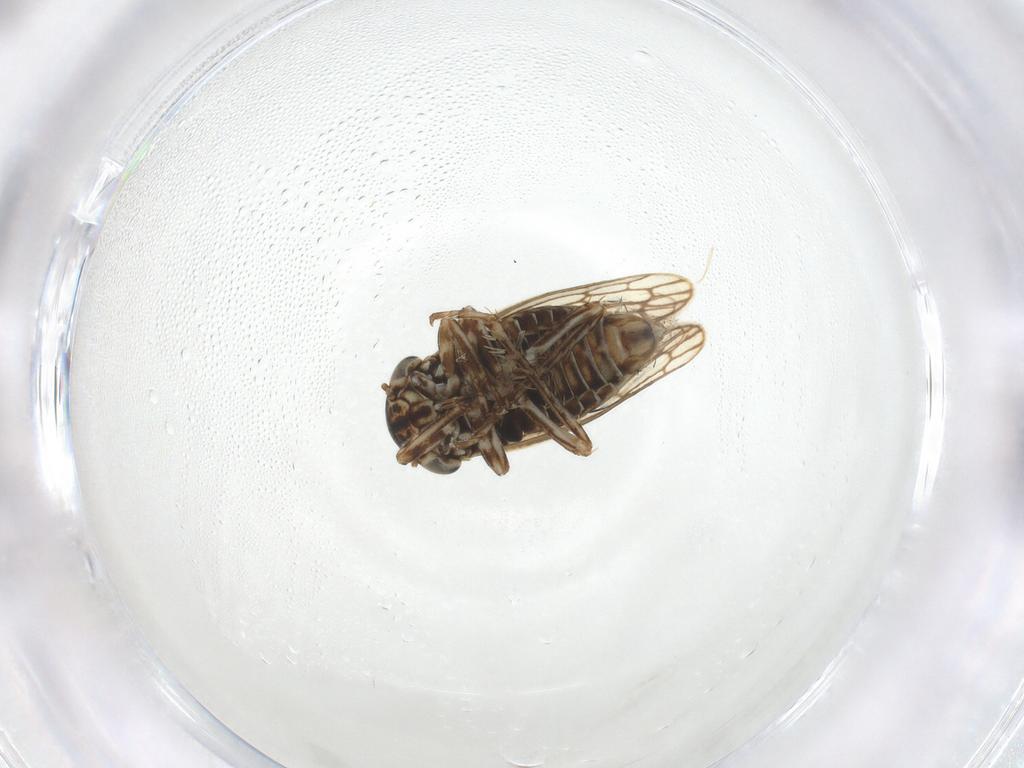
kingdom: Animalia
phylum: Arthropoda
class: Insecta
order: Hemiptera
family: Cicadellidae
